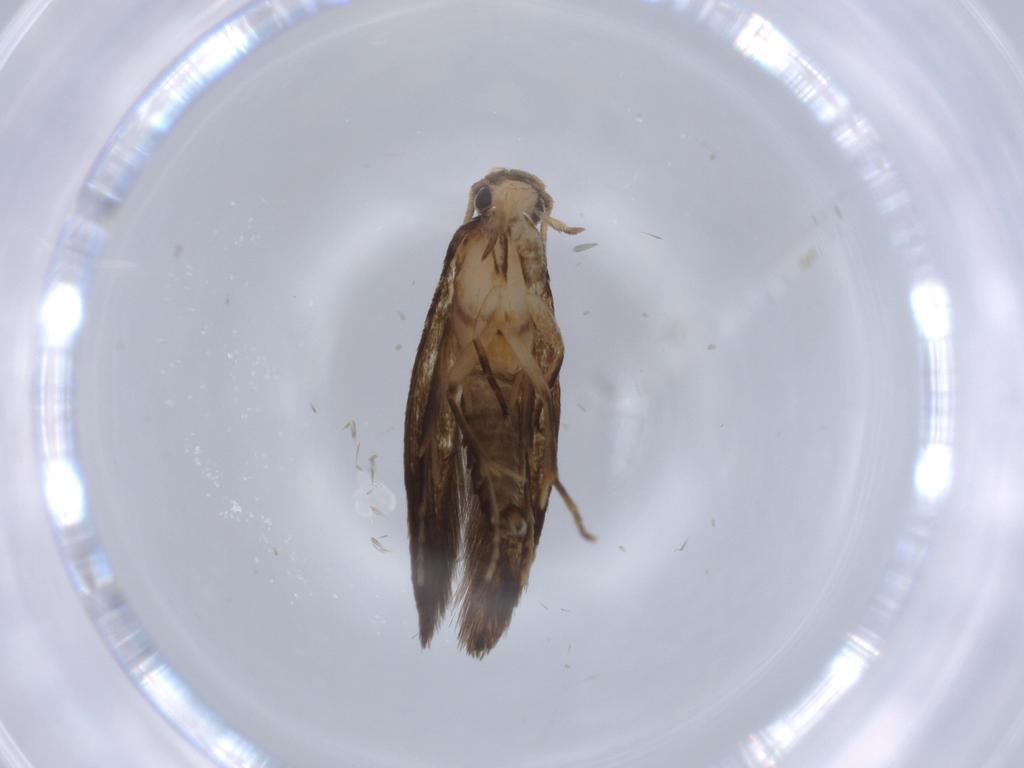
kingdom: Animalia
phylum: Arthropoda
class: Insecta
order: Lepidoptera
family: Tineidae
